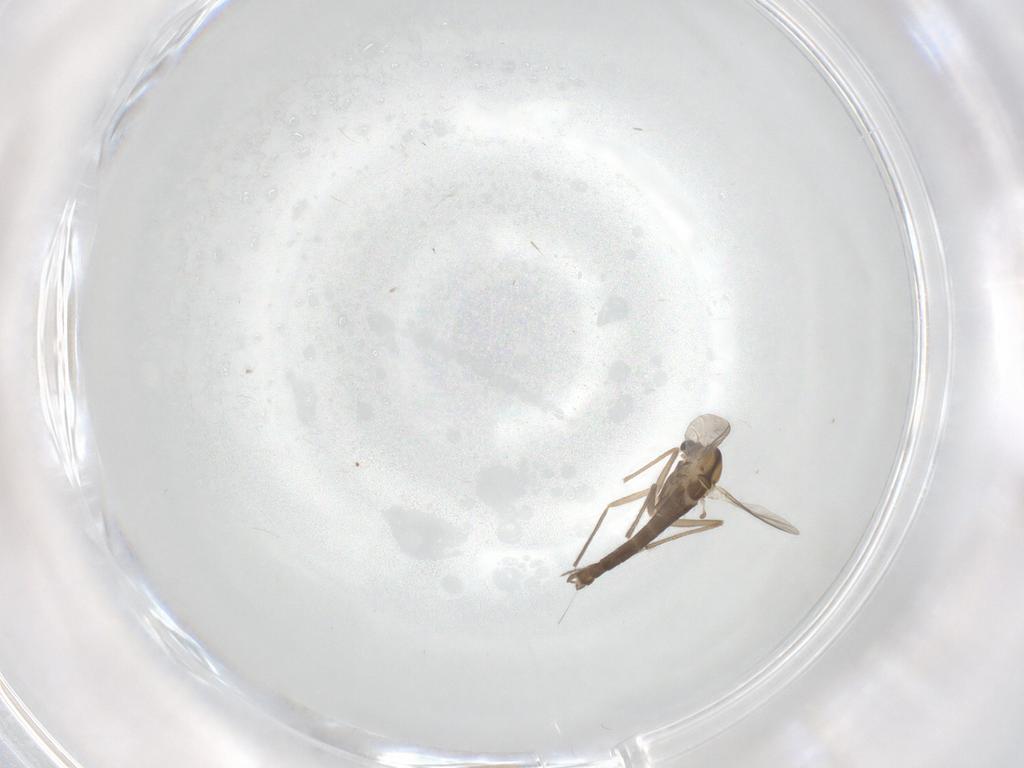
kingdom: Animalia
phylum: Arthropoda
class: Insecta
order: Diptera
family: Chironomidae
